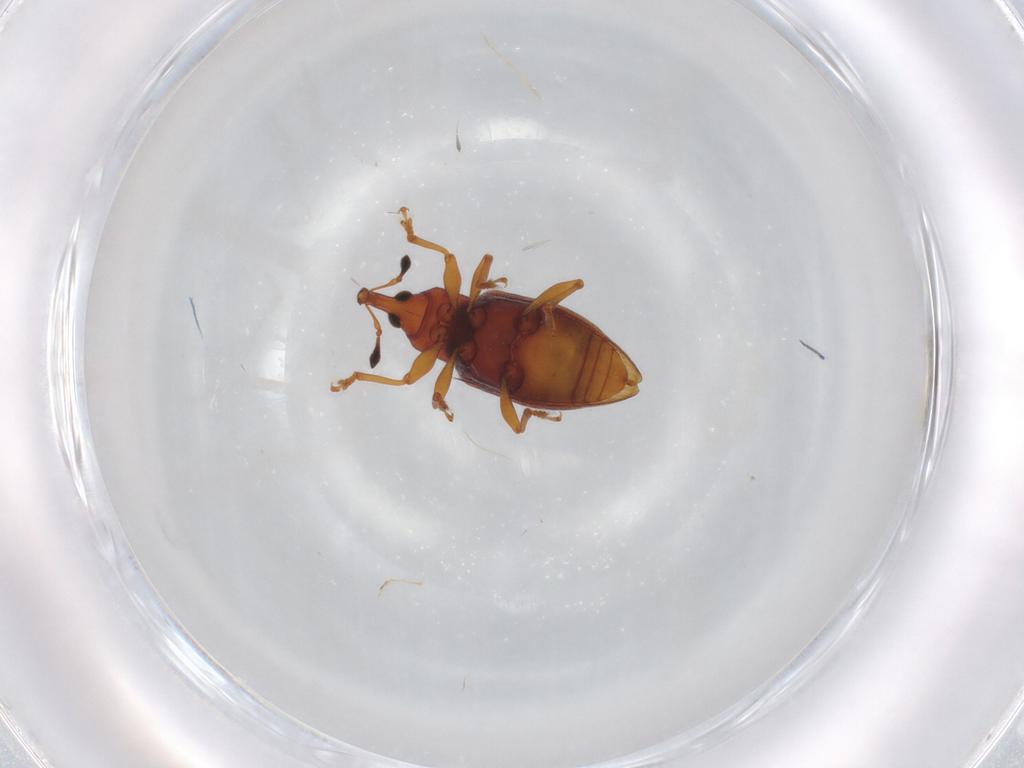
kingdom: Animalia
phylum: Arthropoda
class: Insecta
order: Coleoptera
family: Curculionidae
